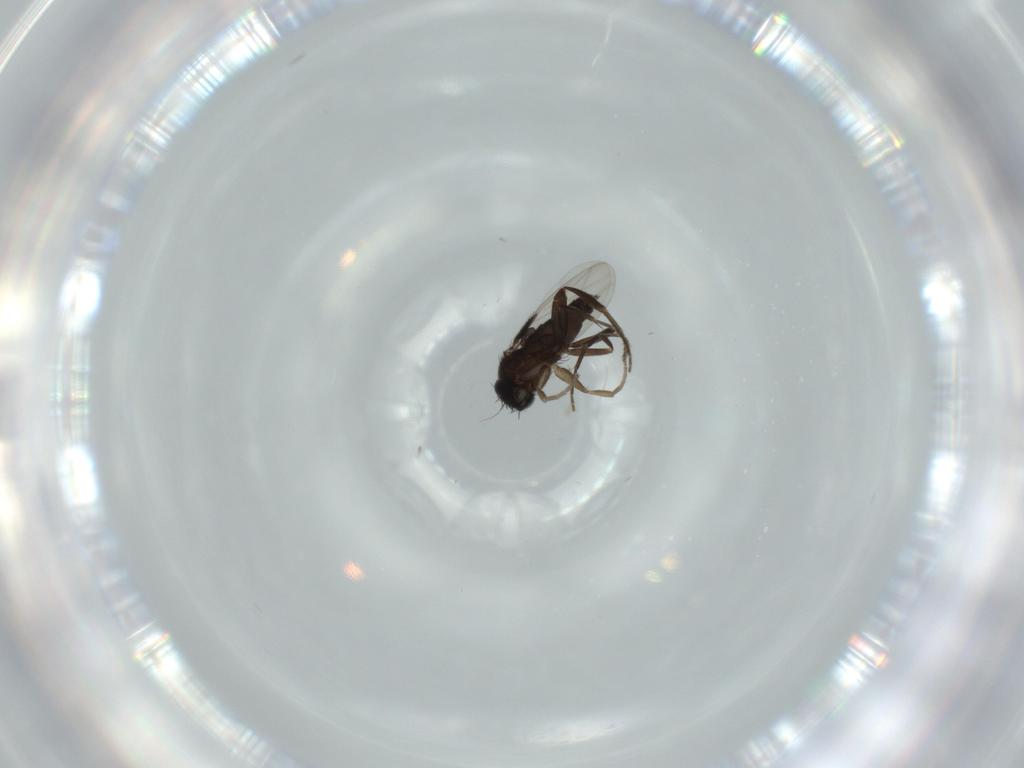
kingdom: Animalia
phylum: Arthropoda
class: Insecta
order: Diptera
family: Phoridae
